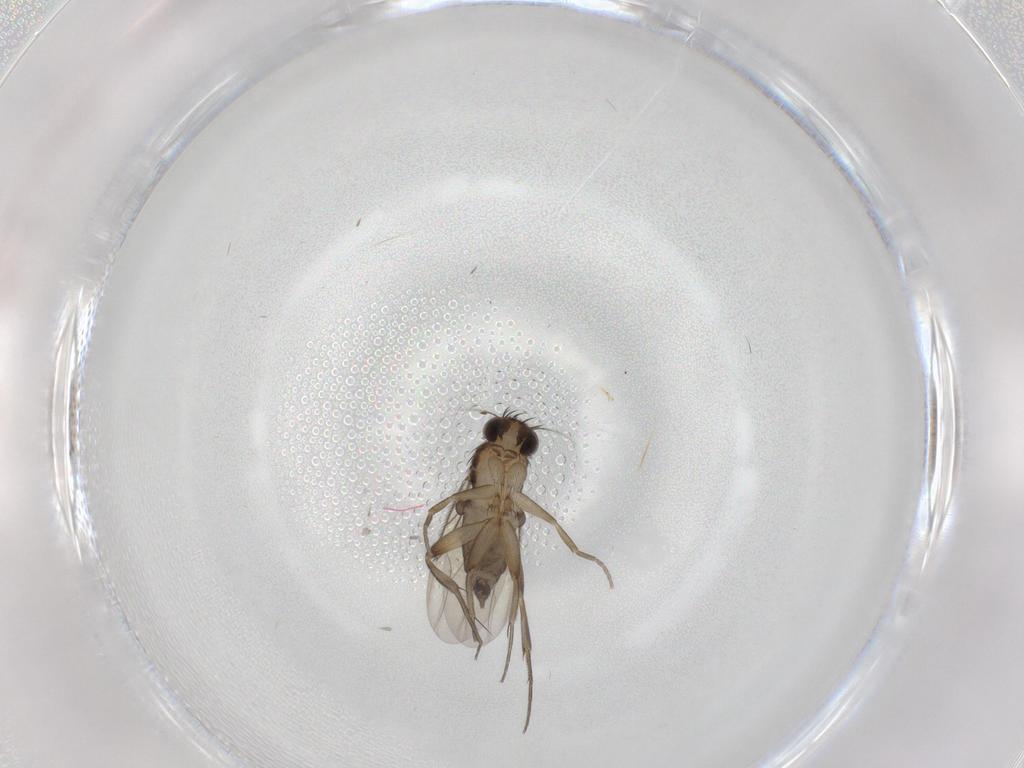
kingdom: Animalia
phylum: Arthropoda
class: Insecta
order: Diptera
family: Phoridae
